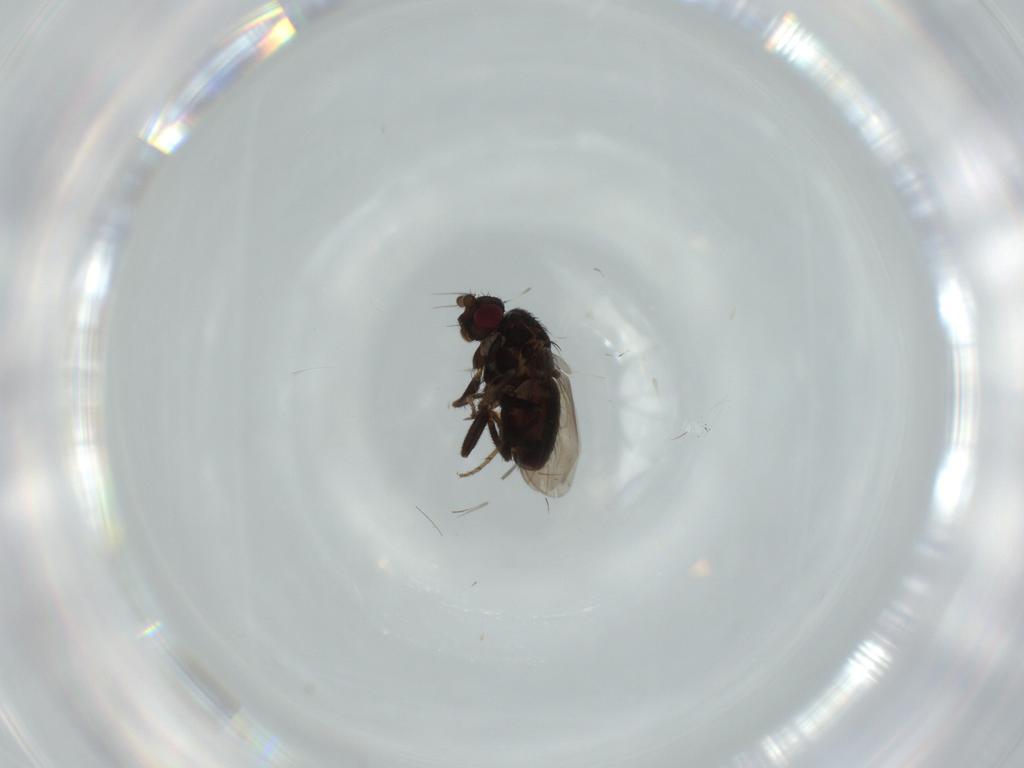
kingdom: Animalia
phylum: Arthropoda
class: Insecta
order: Diptera
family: Sphaeroceridae
